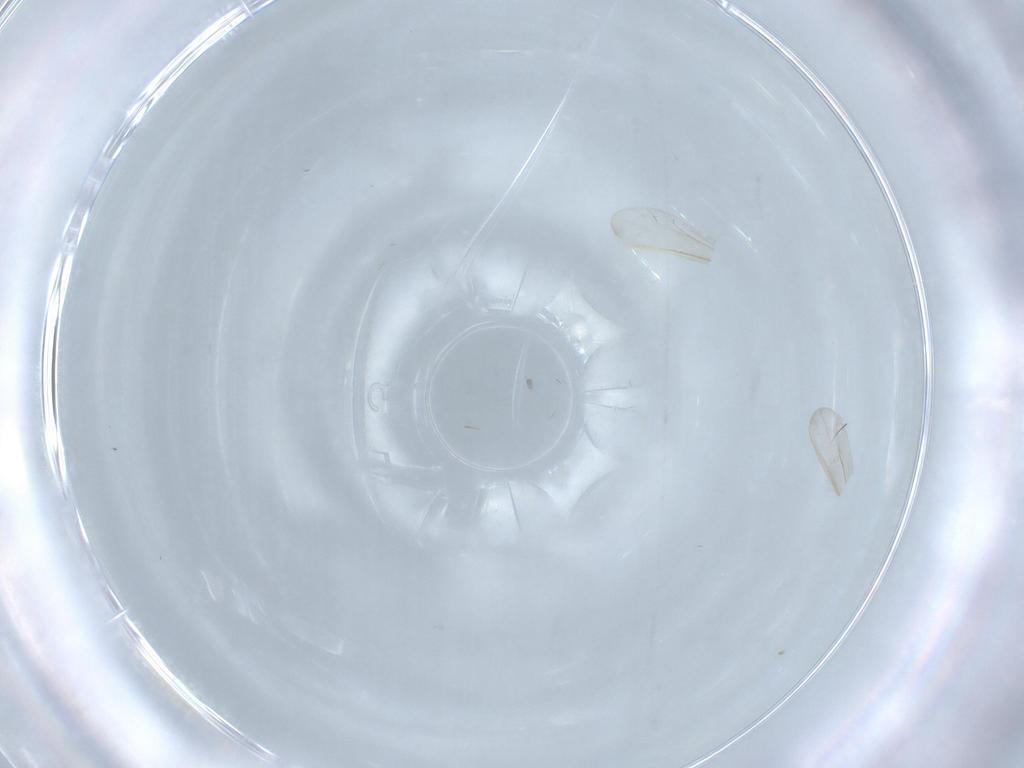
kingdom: Animalia
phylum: Arthropoda
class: Insecta
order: Diptera
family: Chironomidae
